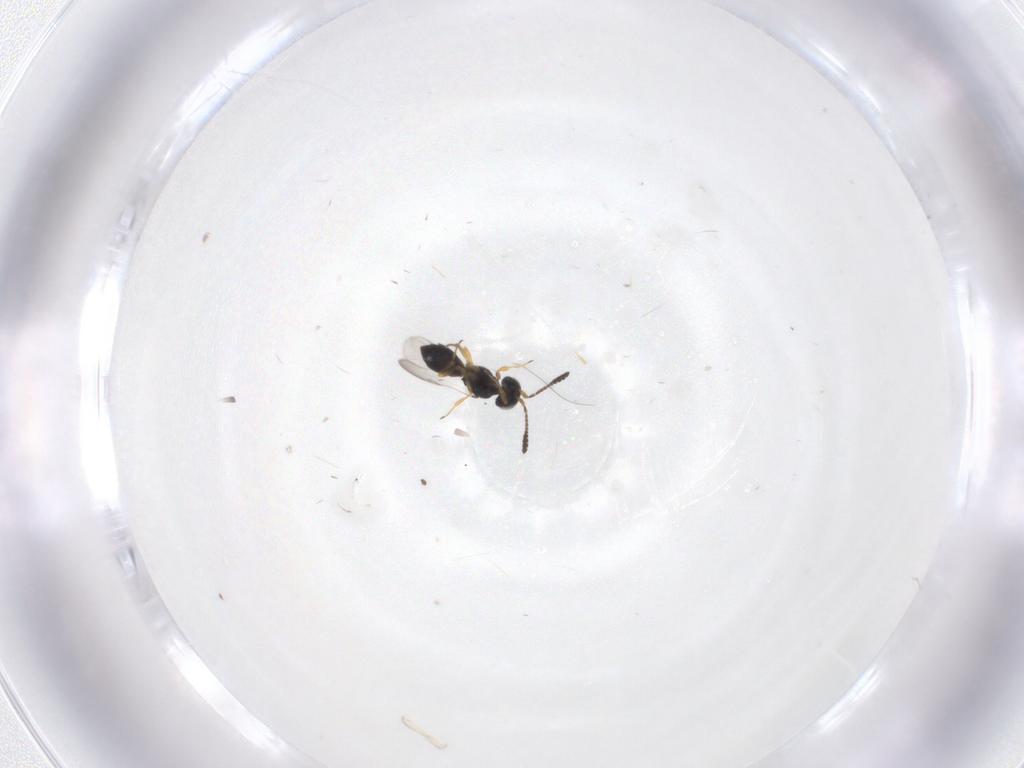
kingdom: Animalia
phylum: Arthropoda
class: Insecta
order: Hymenoptera
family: Scelionidae
